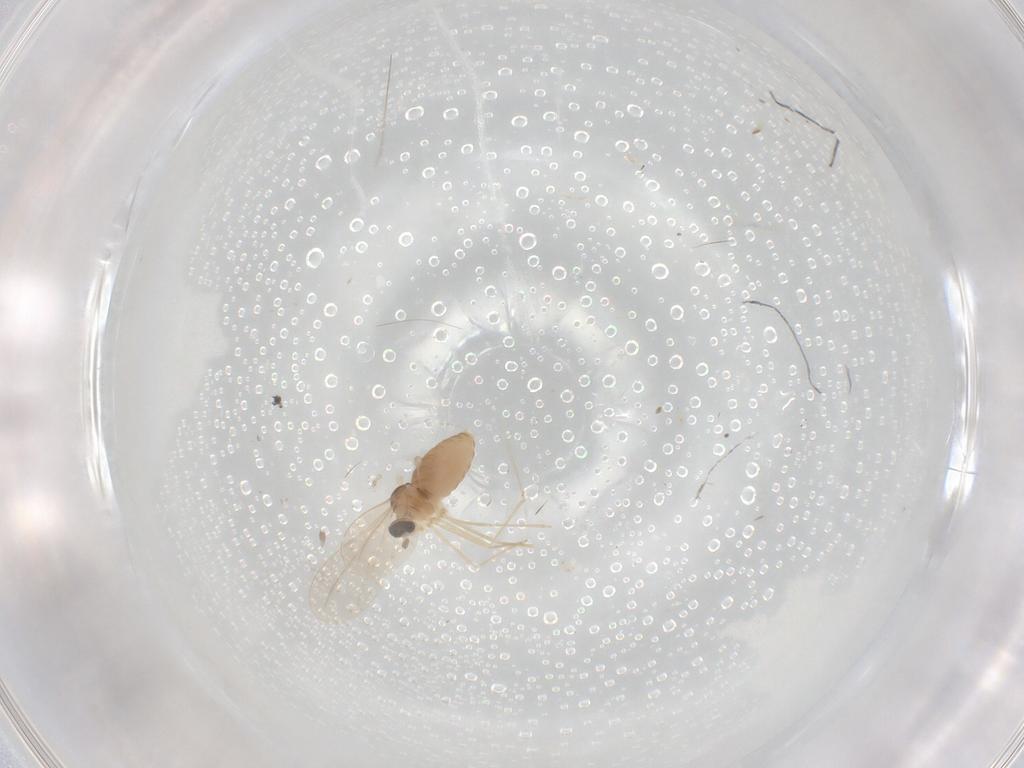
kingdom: Animalia
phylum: Arthropoda
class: Insecta
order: Diptera
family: Cecidomyiidae
